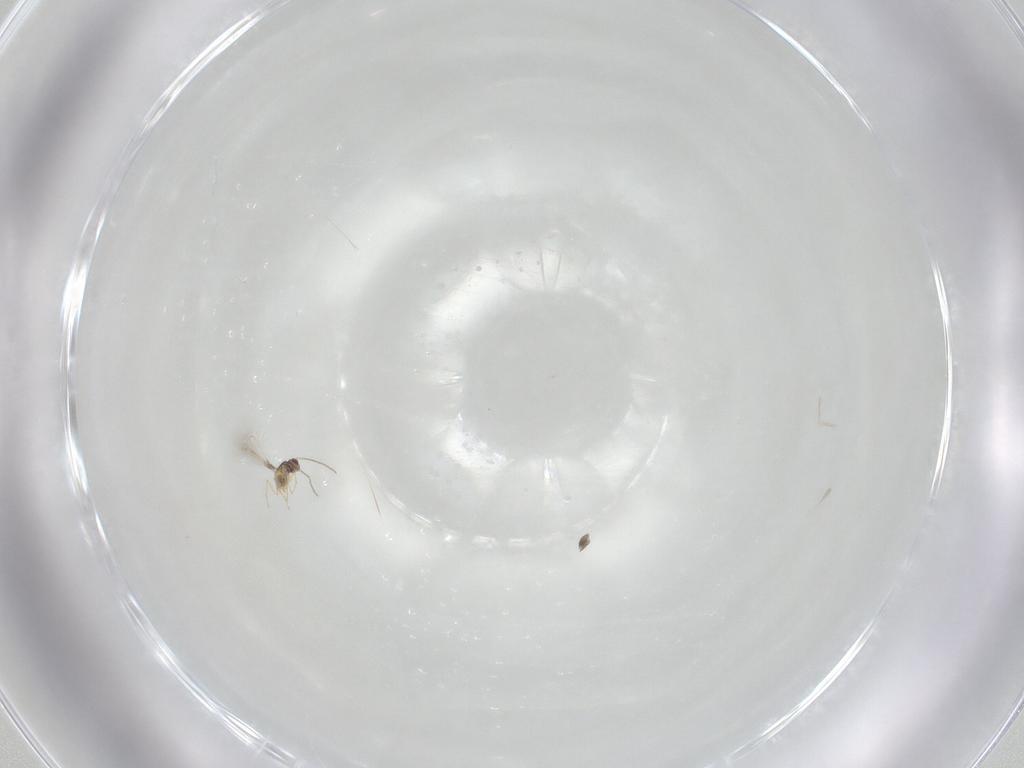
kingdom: Animalia
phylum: Arthropoda
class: Insecta
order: Hymenoptera
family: Mymaridae
